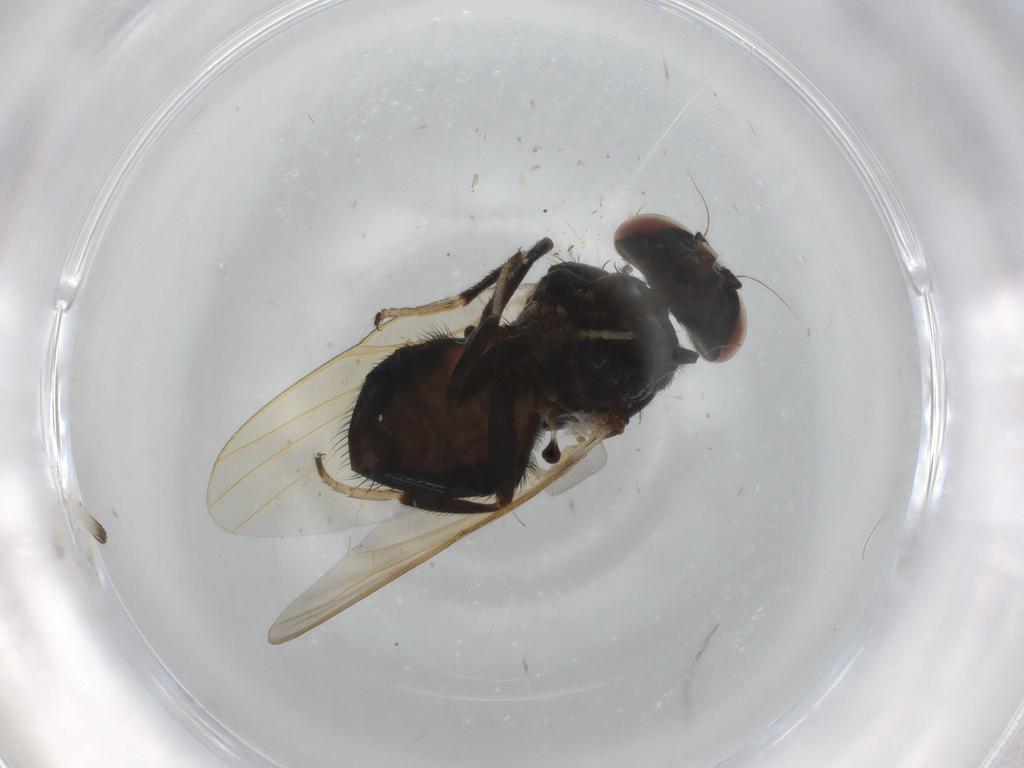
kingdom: Animalia
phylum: Arthropoda
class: Insecta
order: Diptera
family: Lonchaeidae
